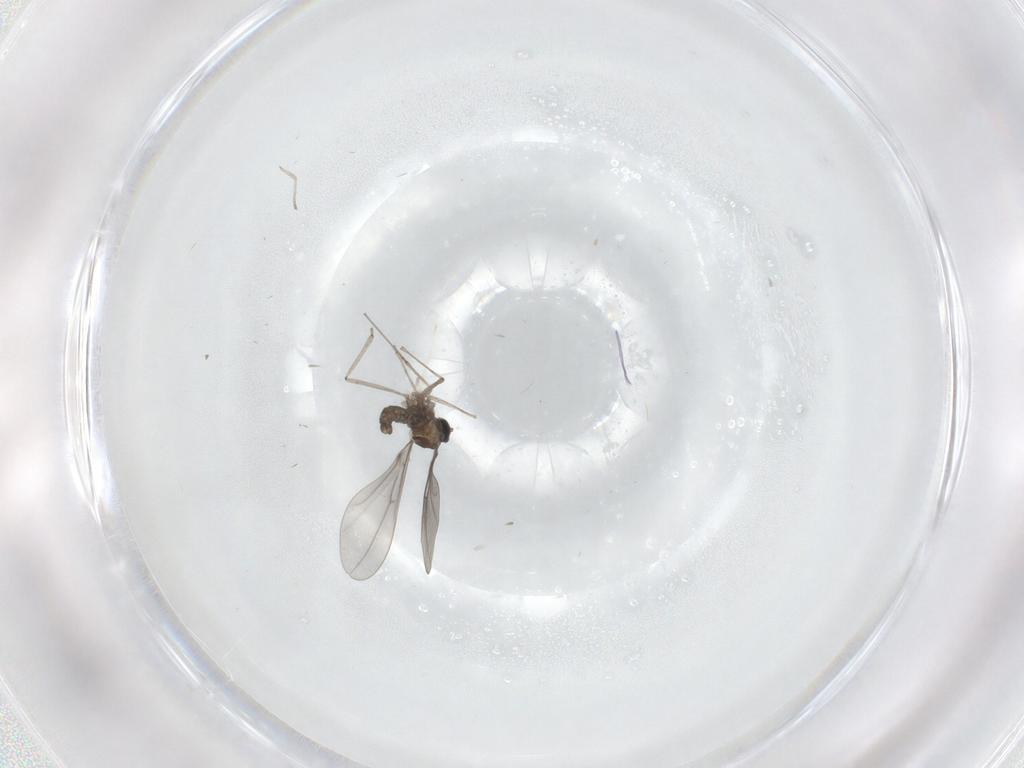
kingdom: Animalia
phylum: Arthropoda
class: Insecta
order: Diptera
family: Cecidomyiidae
